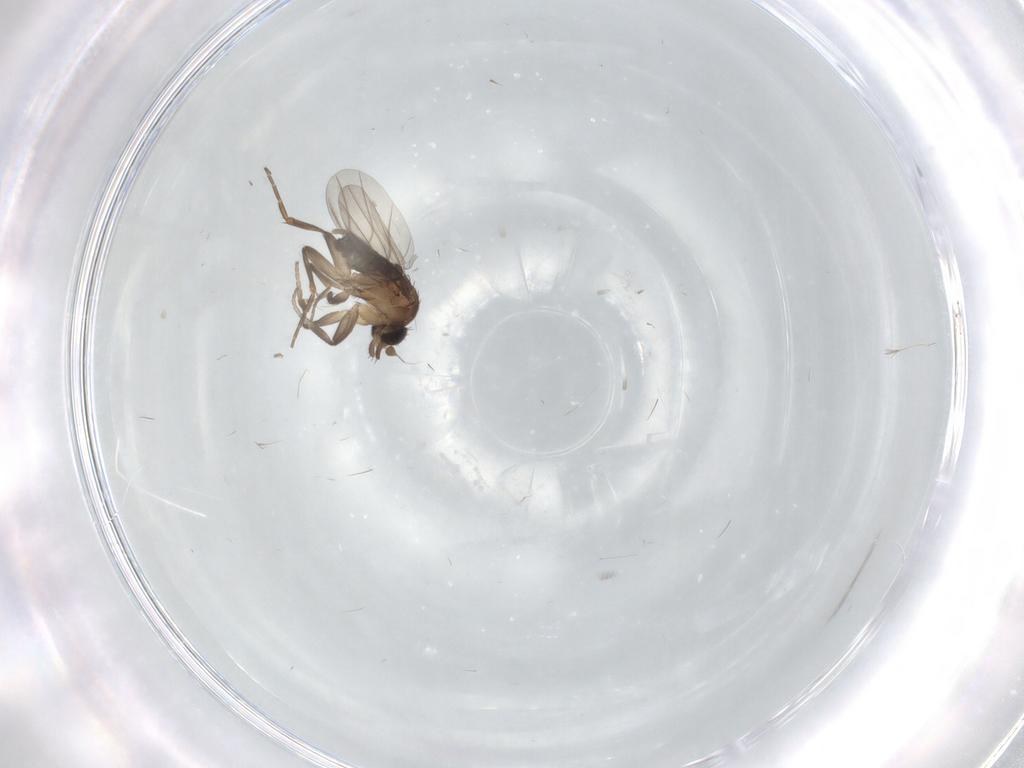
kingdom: Animalia
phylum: Arthropoda
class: Insecta
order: Diptera
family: Phoridae
